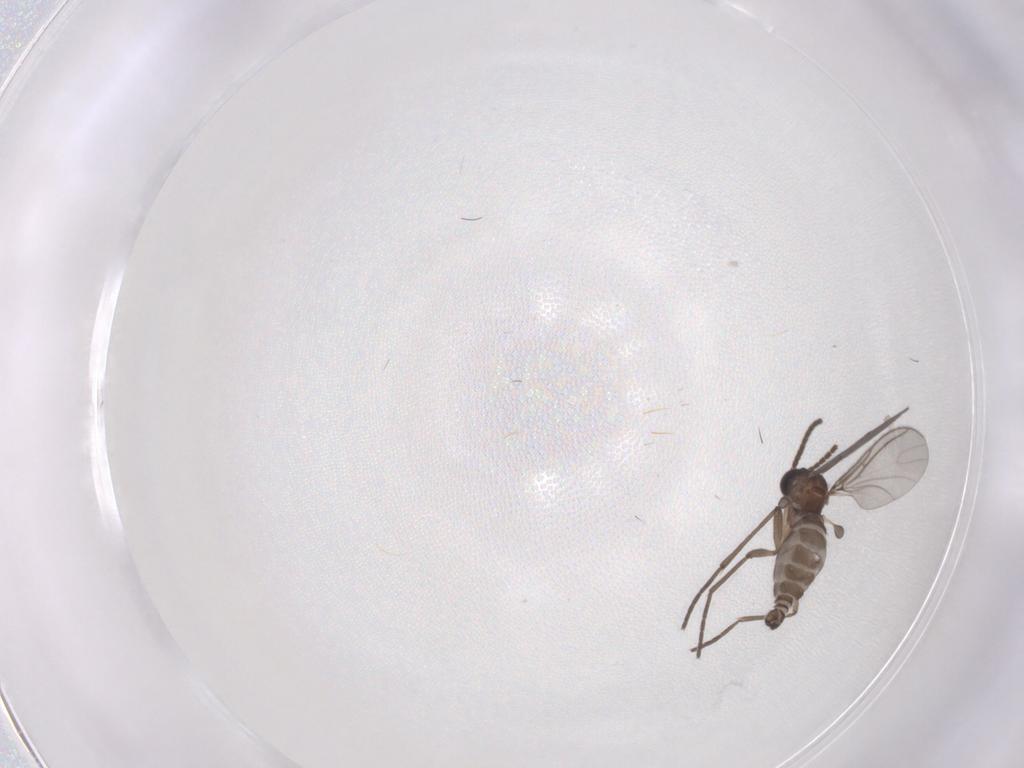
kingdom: Animalia
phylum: Arthropoda
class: Insecta
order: Diptera
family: Sciaridae
